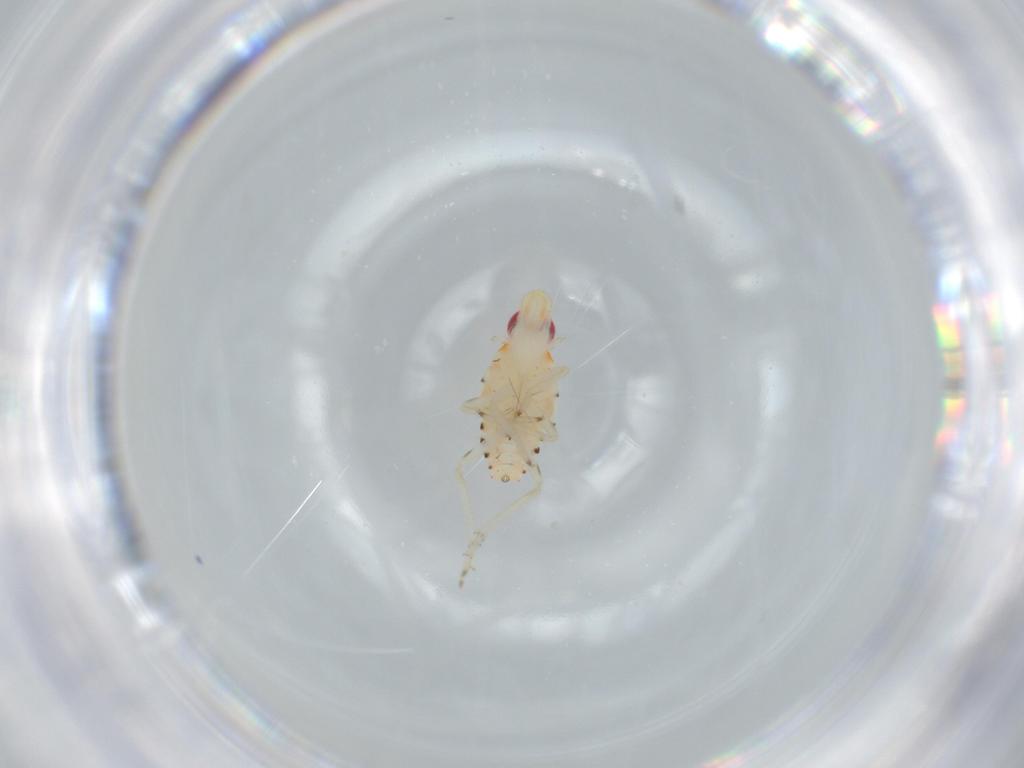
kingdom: Animalia
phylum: Arthropoda
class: Insecta
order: Hemiptera
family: Tropiduchidae
